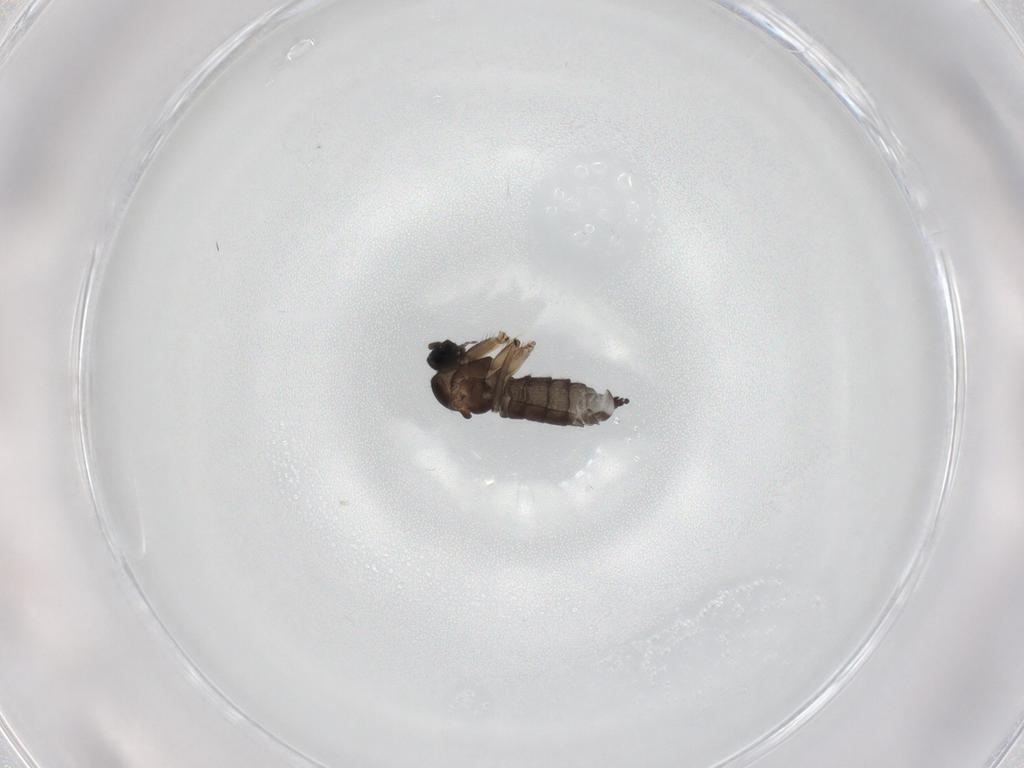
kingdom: Animalia
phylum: Arthropoda
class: Insecta
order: Diptera
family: Sciaridae
